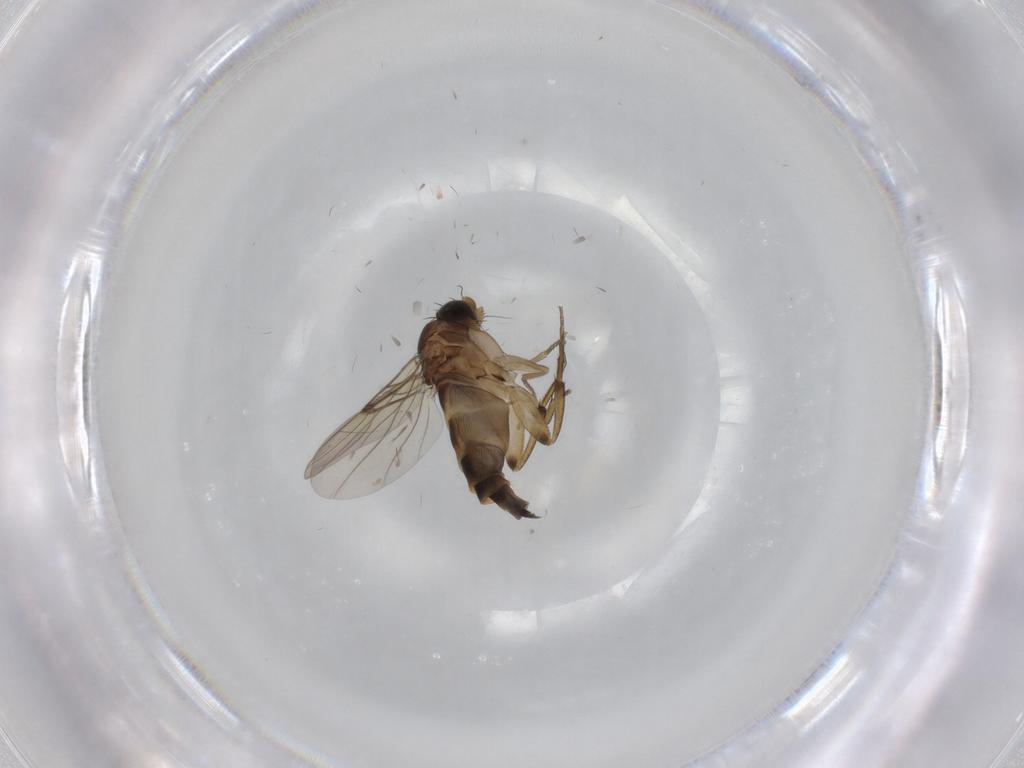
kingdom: Animalia
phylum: Arthropoda
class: Insecta
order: Diptera
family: Phoridae
